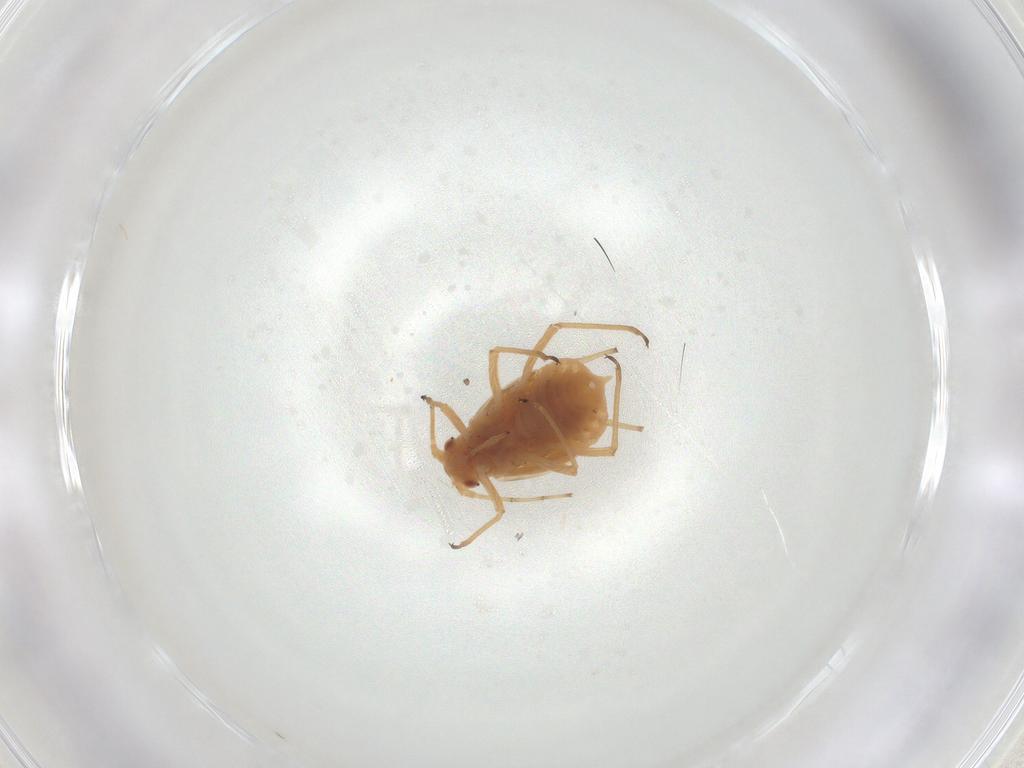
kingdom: Animalia
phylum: Arthropoda
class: Insecta
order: Hemiptera
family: Aphididae
